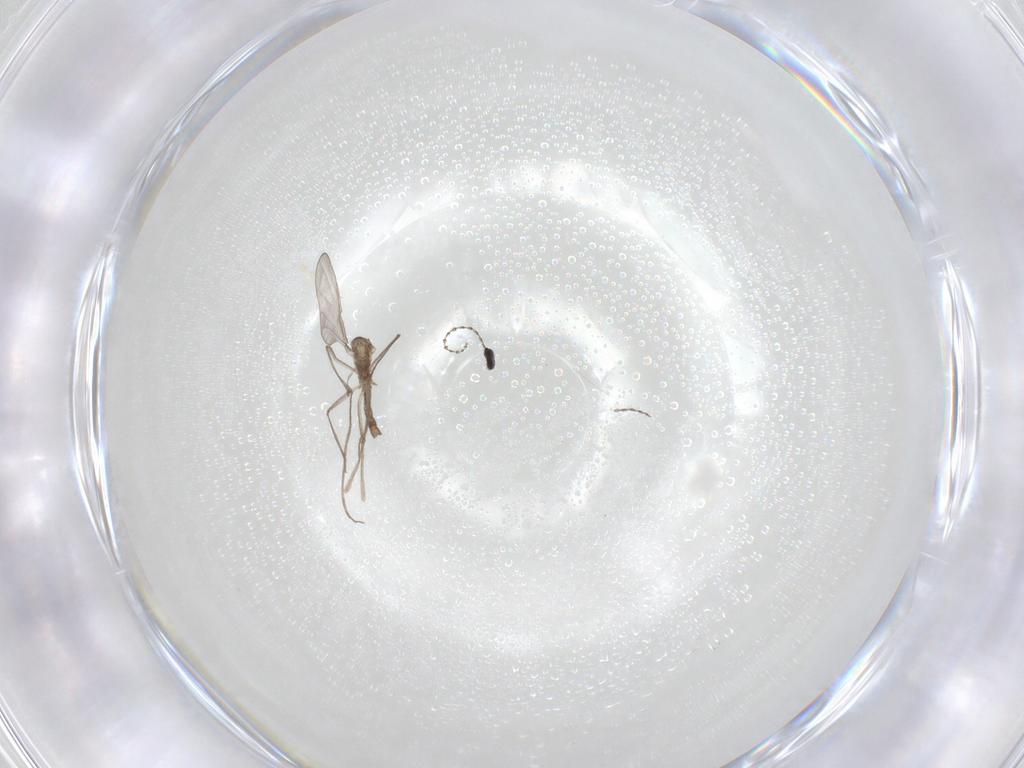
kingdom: Animalia
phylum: Arthropoda
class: Insecta
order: Diptera
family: Cecidomyiidae
